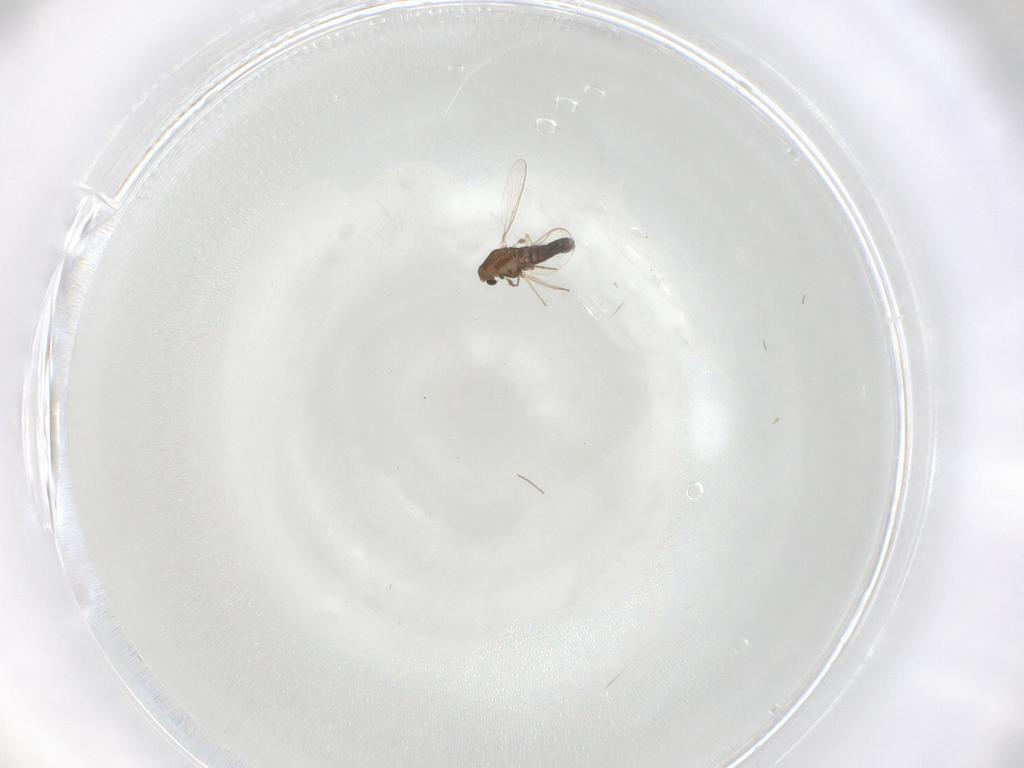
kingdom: Animalia
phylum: Arthropoda
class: Insecta
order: Diptera
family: Chironomidae
